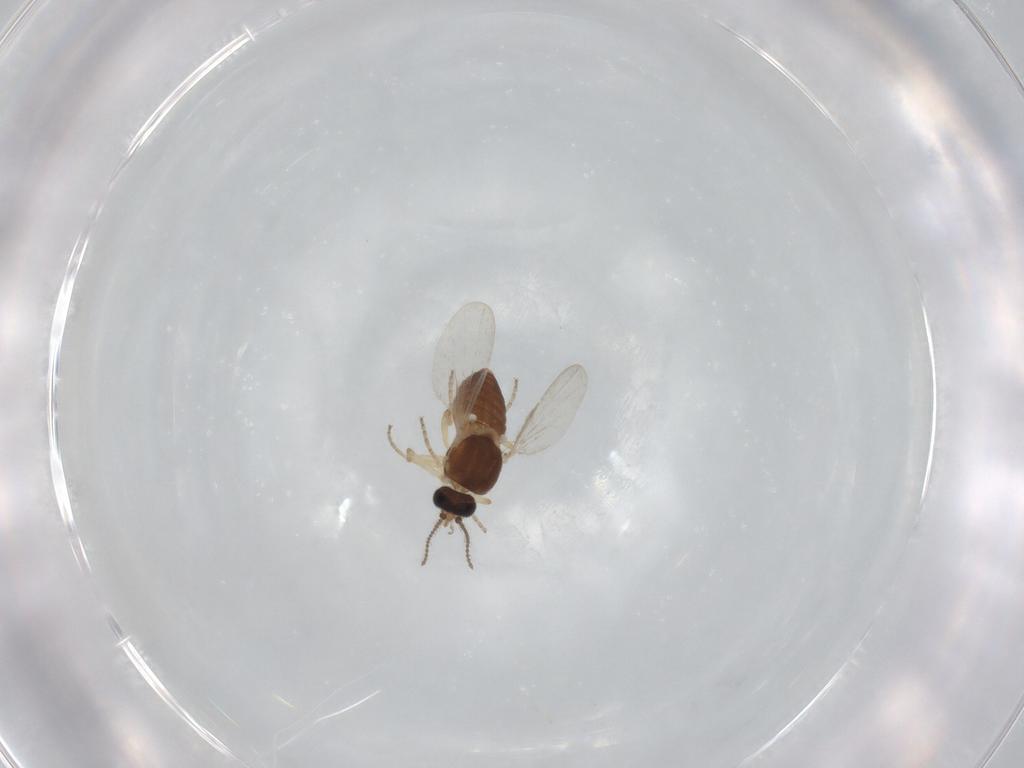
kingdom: Animalia
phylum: Arthropoda
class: Insecta
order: Diptera
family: Ceratopogonidae
